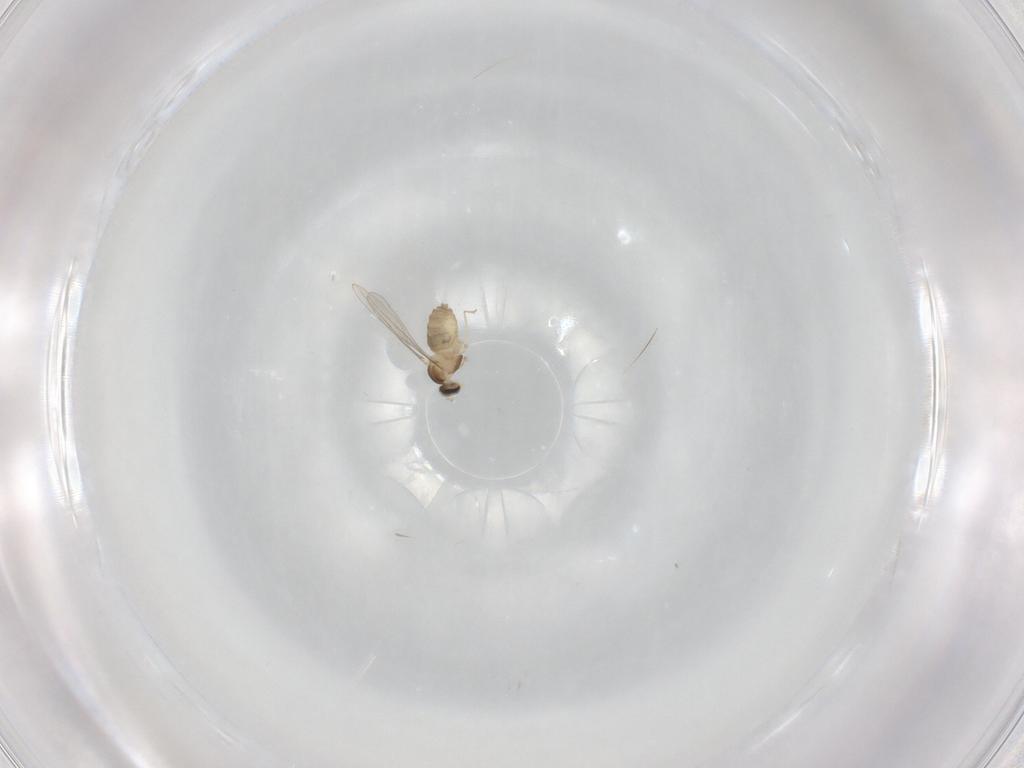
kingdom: Animalia
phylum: Arthropoda
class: Insecta
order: Diptera
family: Cecidomyiidae
